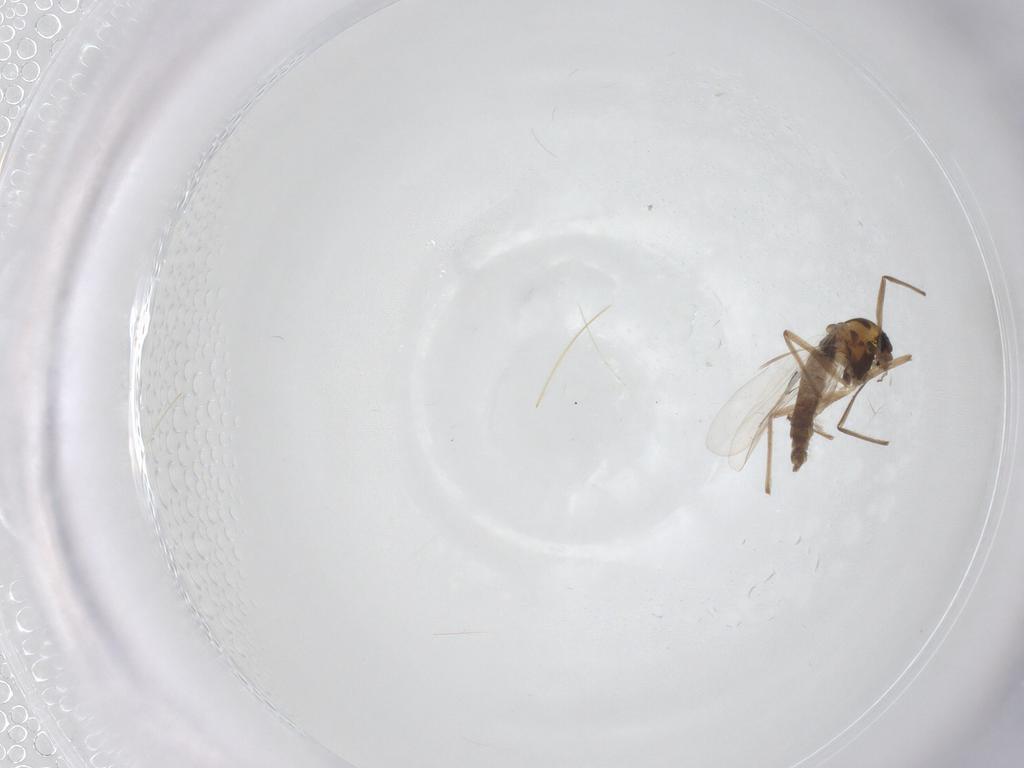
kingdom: Animalia
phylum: Arthropoda
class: Insecta
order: Diptera
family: Chironomidae
